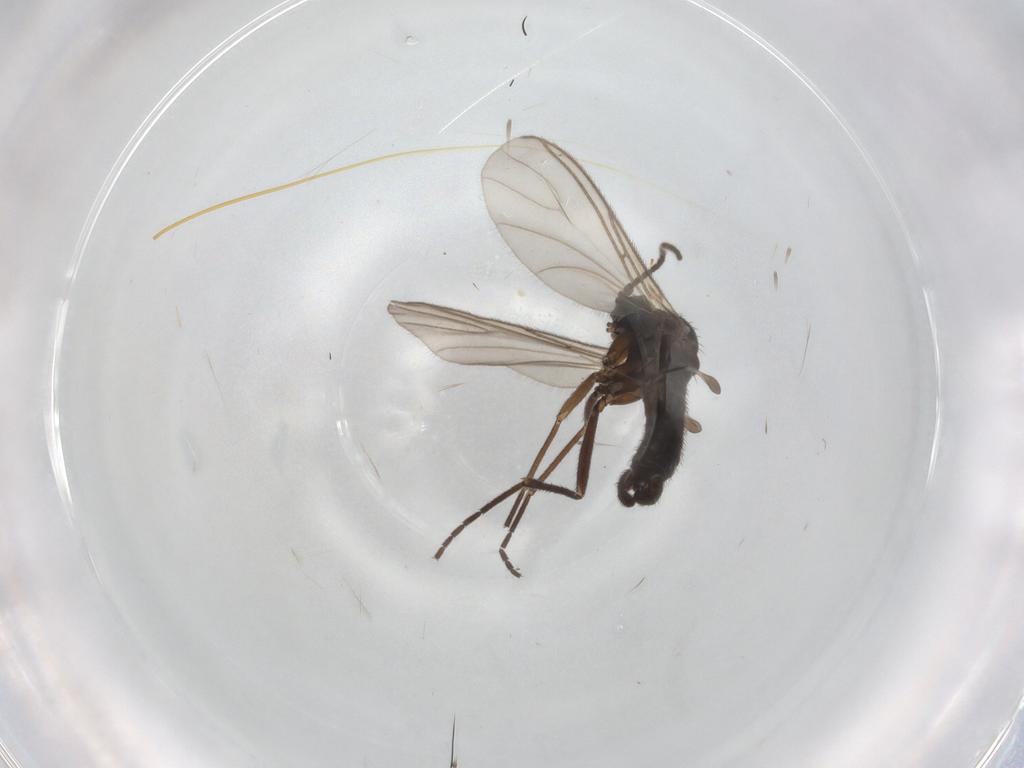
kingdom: Animalia
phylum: Arthropoda
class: Insecta
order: Diptera
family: Sciaridae
